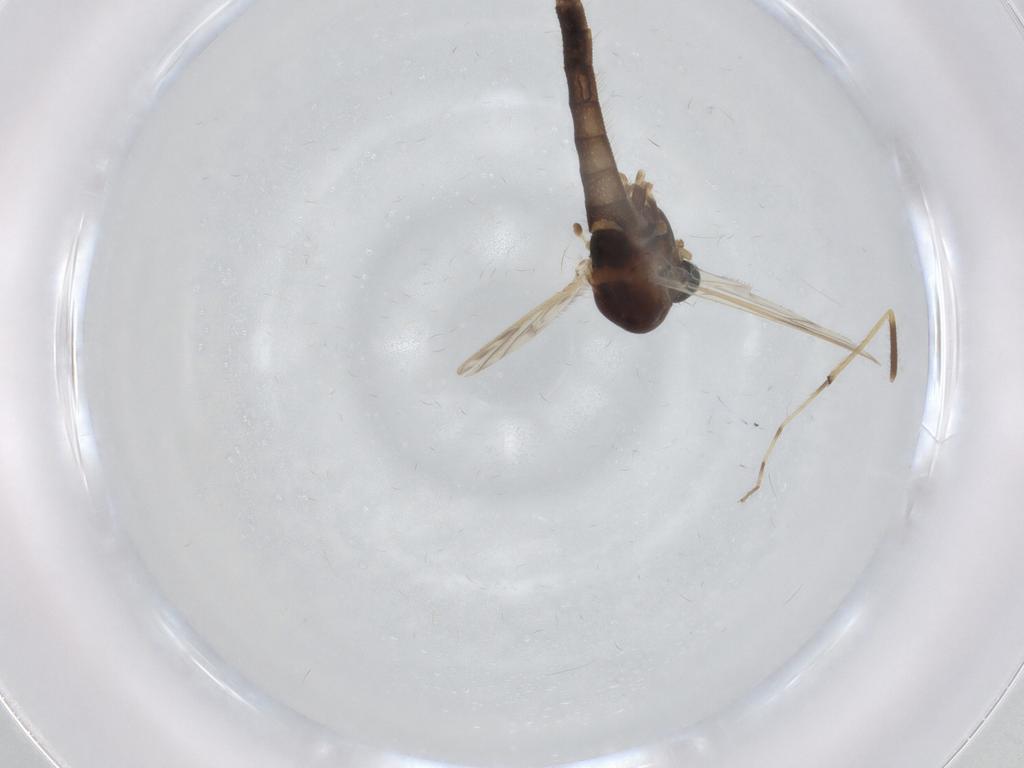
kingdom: Animalia
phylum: Arthropoda
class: Insecta
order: Diptera
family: Chironomidae
